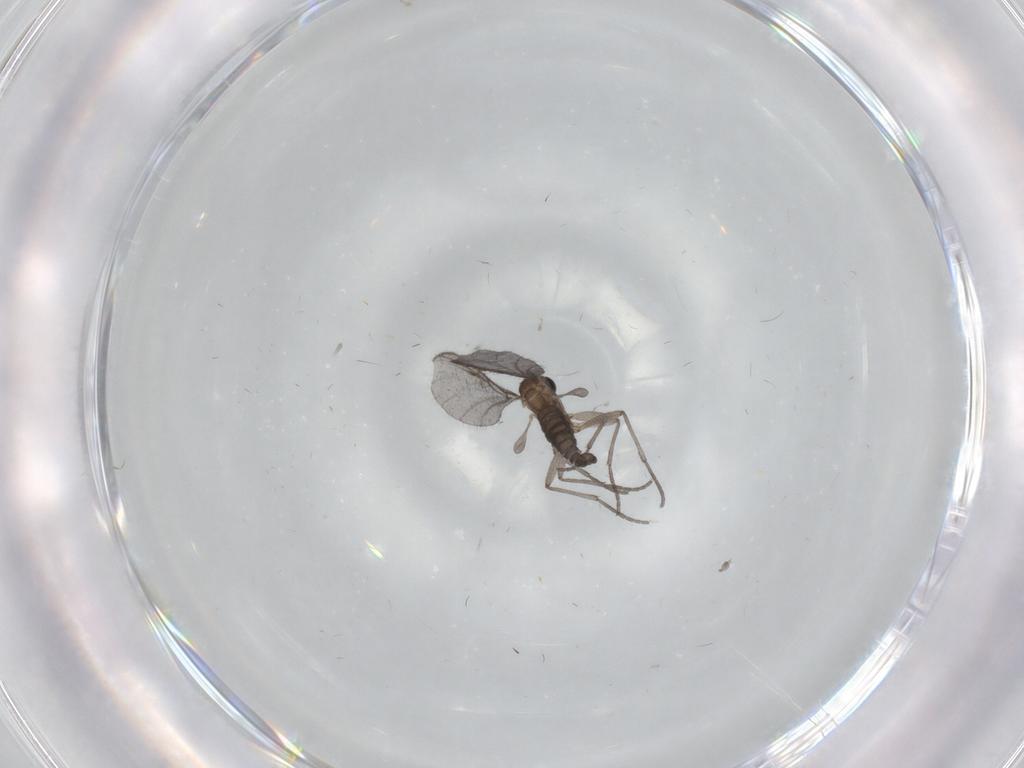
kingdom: Animalia
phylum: Arthropoda
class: Insecta
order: Diptera
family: Sciaridae
